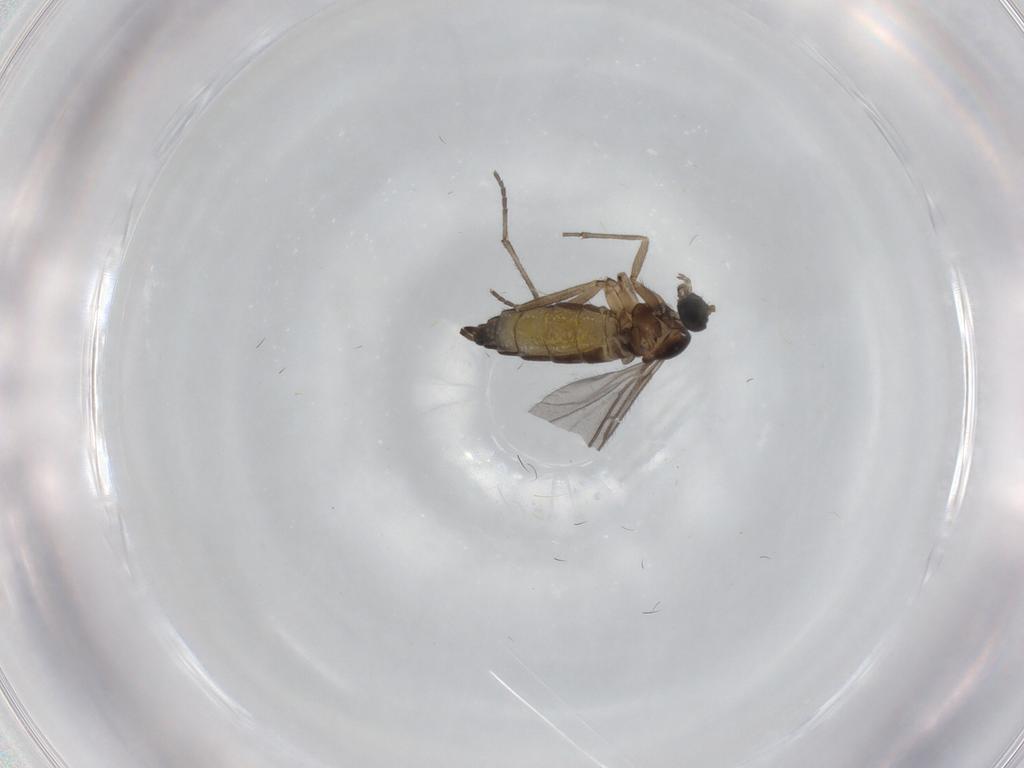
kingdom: Animalia
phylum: Arthropoda
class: Insecta
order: Diptera
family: Sciaridae
